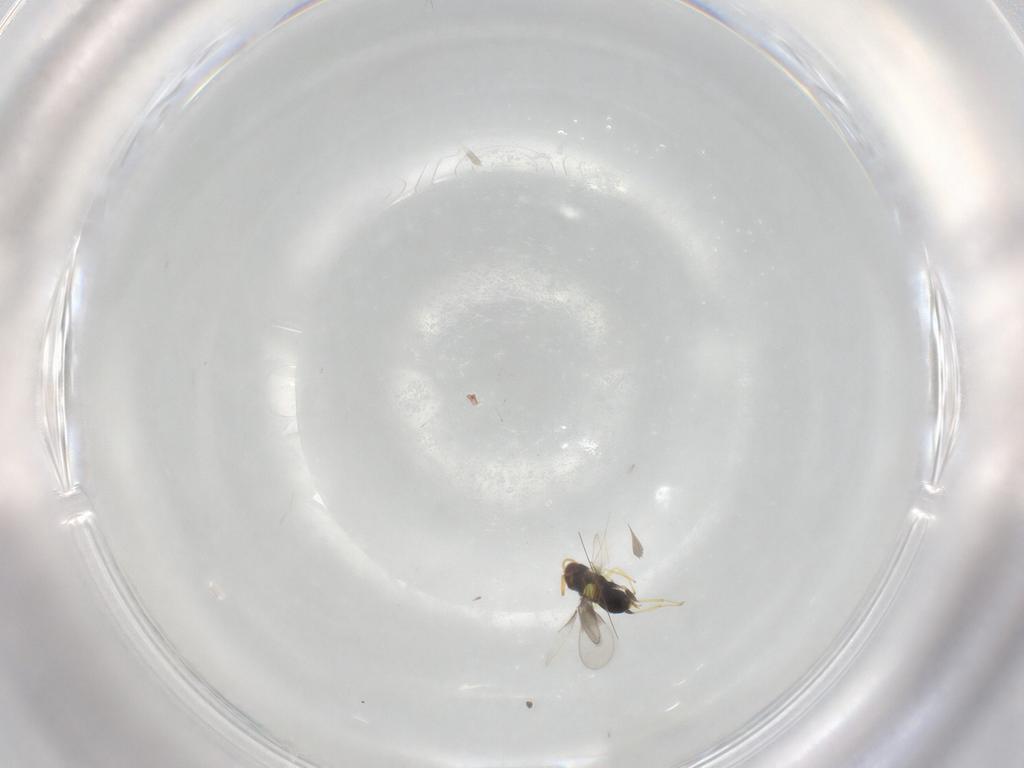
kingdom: Animalia
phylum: Arthropoda
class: Insecta
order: Hymenoptera
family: Aphelinidae
